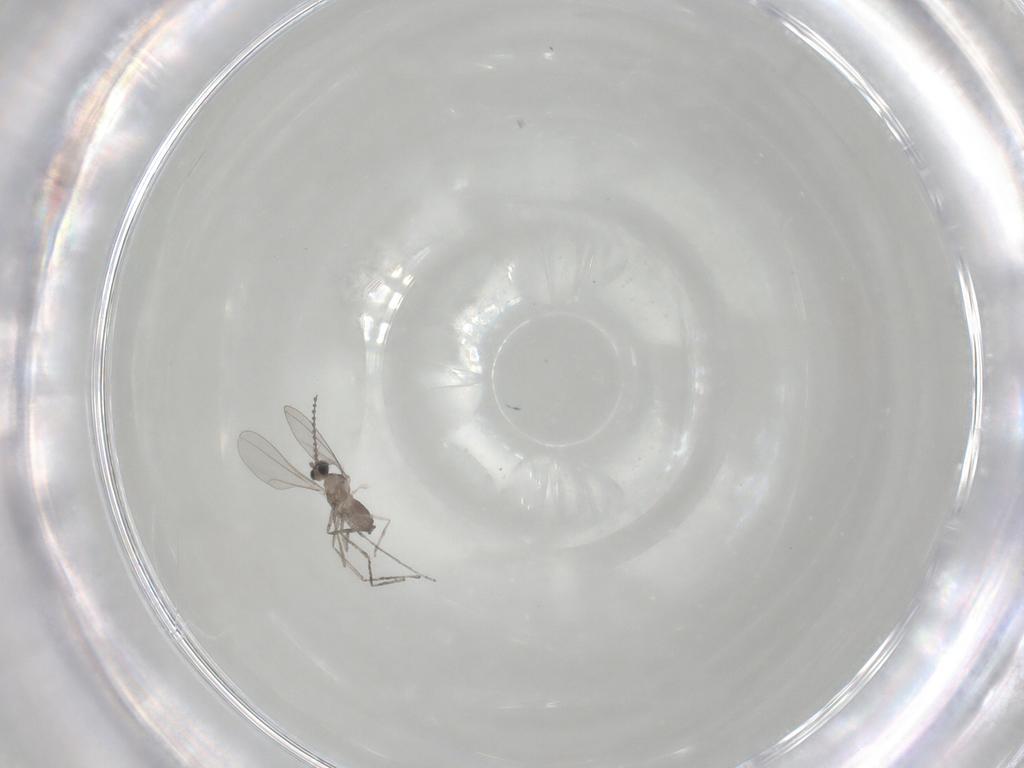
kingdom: Animalia
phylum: Arthropoda
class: Insecta
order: Diptera
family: Cecidomyiidae
